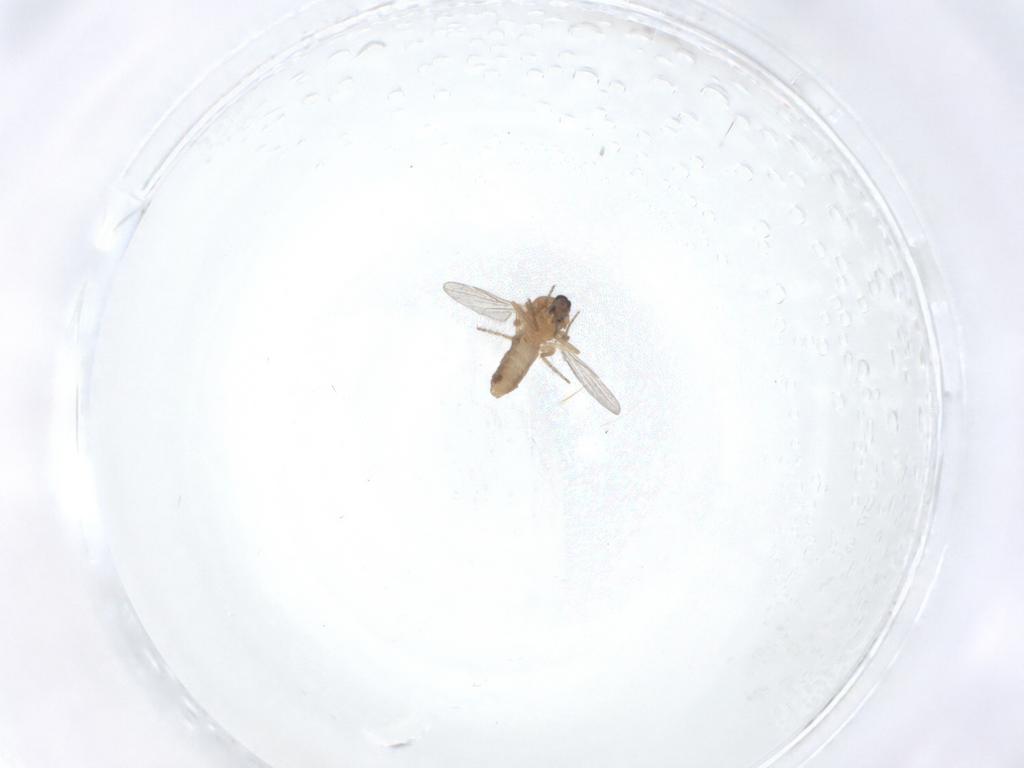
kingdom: Animalia
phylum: Arthropoda
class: Insecta
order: Diptera
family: Ceratopogonidae
